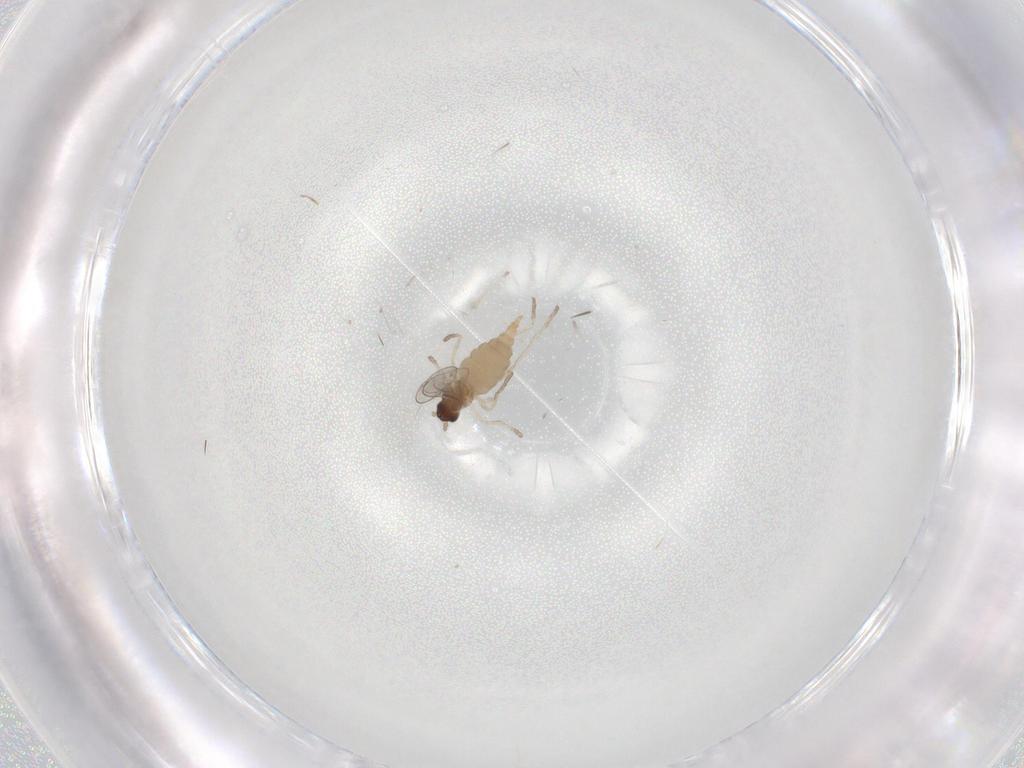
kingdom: Animalia
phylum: Arthropoda
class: Insecta
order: Diptera
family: Cecidomyiidae
